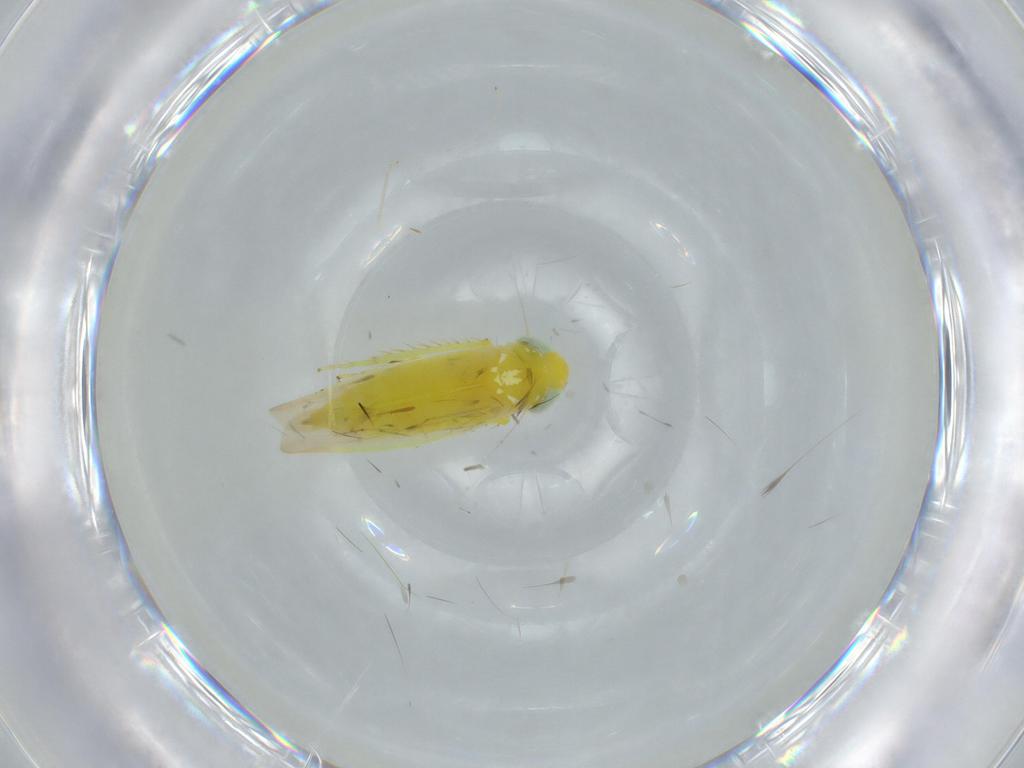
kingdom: Animalia
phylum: Arthropoda
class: Insecta
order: Hemiptera
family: Cicadellidae
